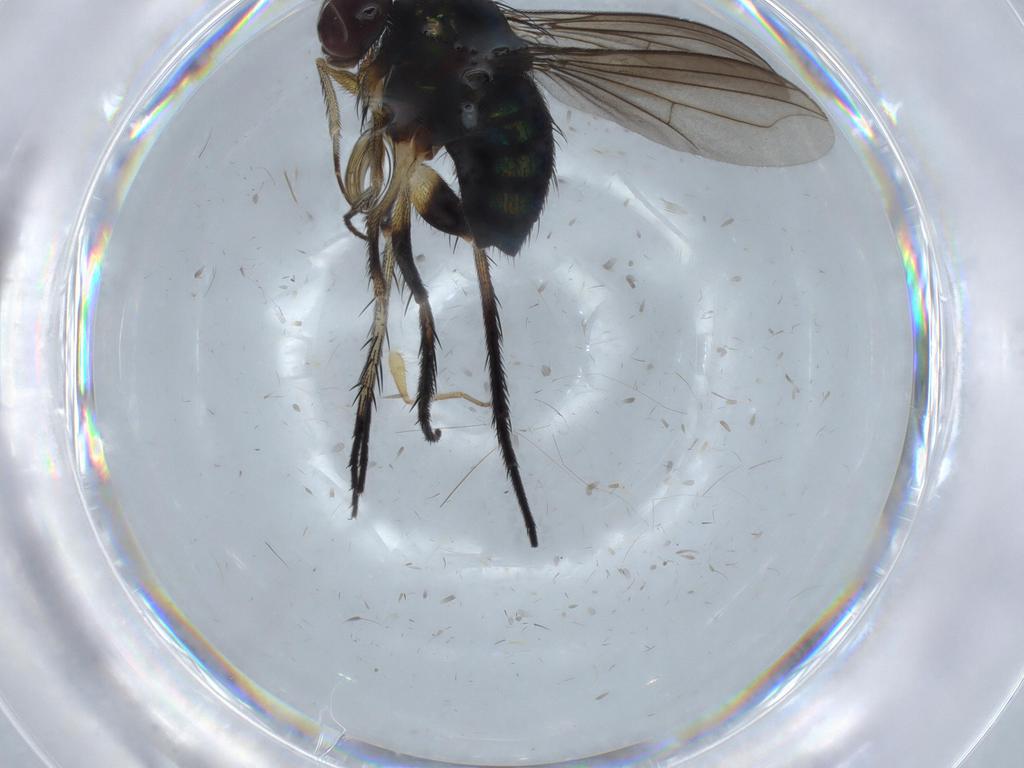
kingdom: Animalia
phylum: Arthropoda
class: Insecta
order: Diptera
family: Dolichopodidae
